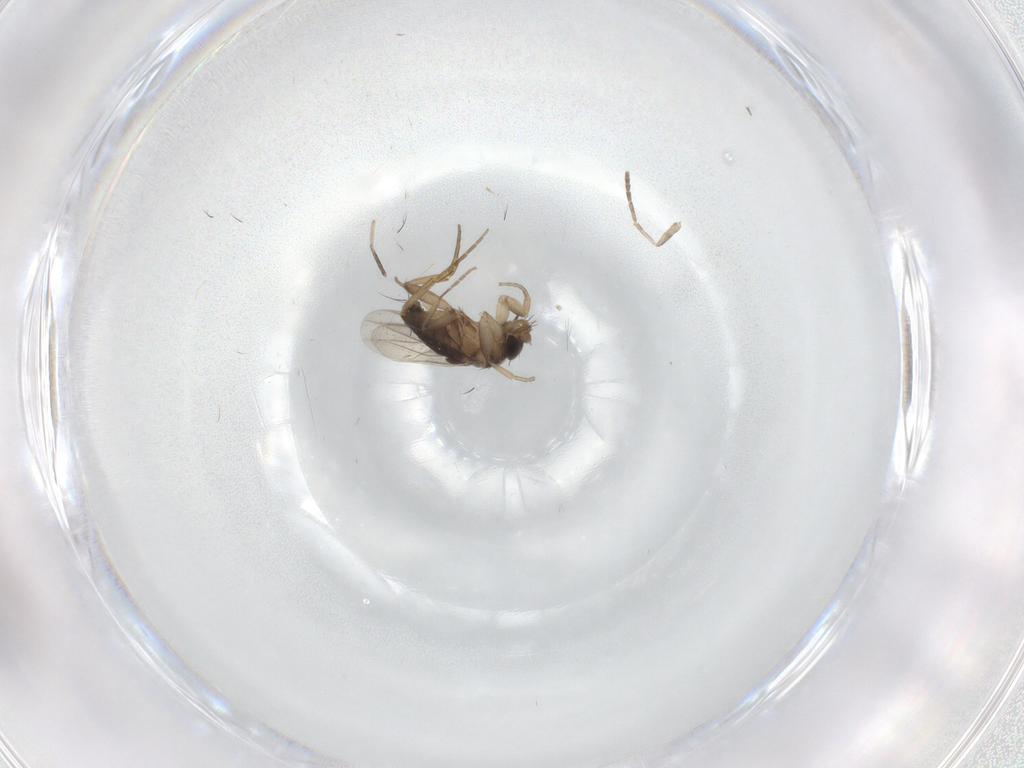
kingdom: Animalia
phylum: Arthropoda
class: Insecta
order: Diptera
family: Phoridae
